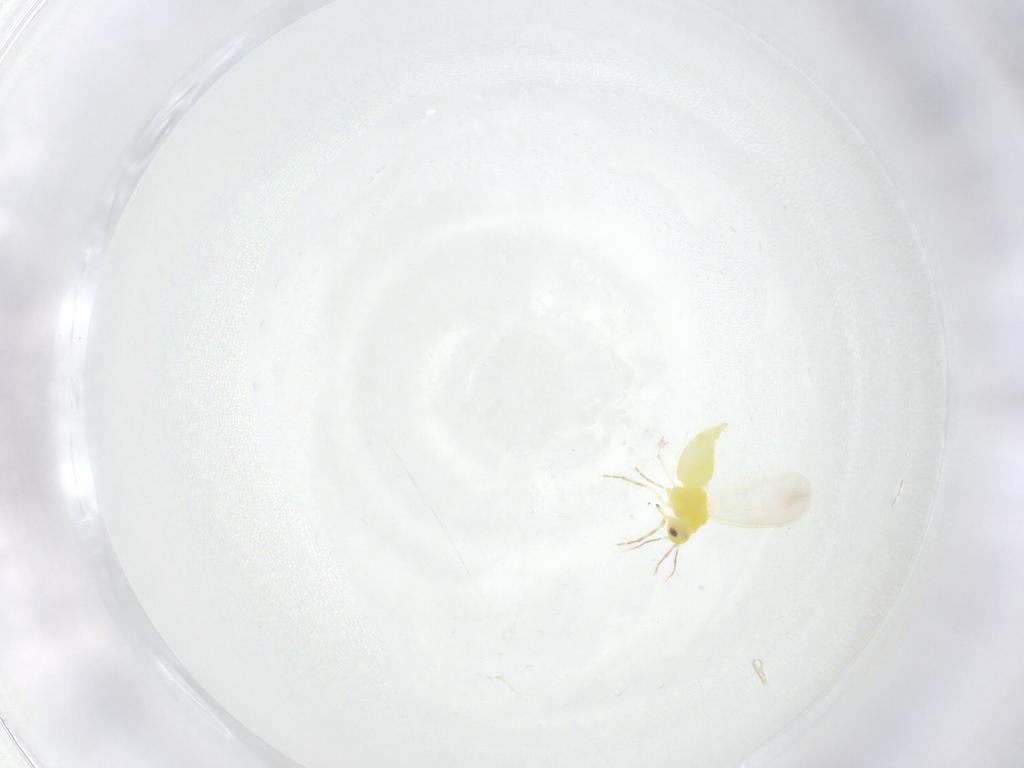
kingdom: Animalia
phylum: Arthropoda
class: Insecta
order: Hemiptera
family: Aleyrodidae
